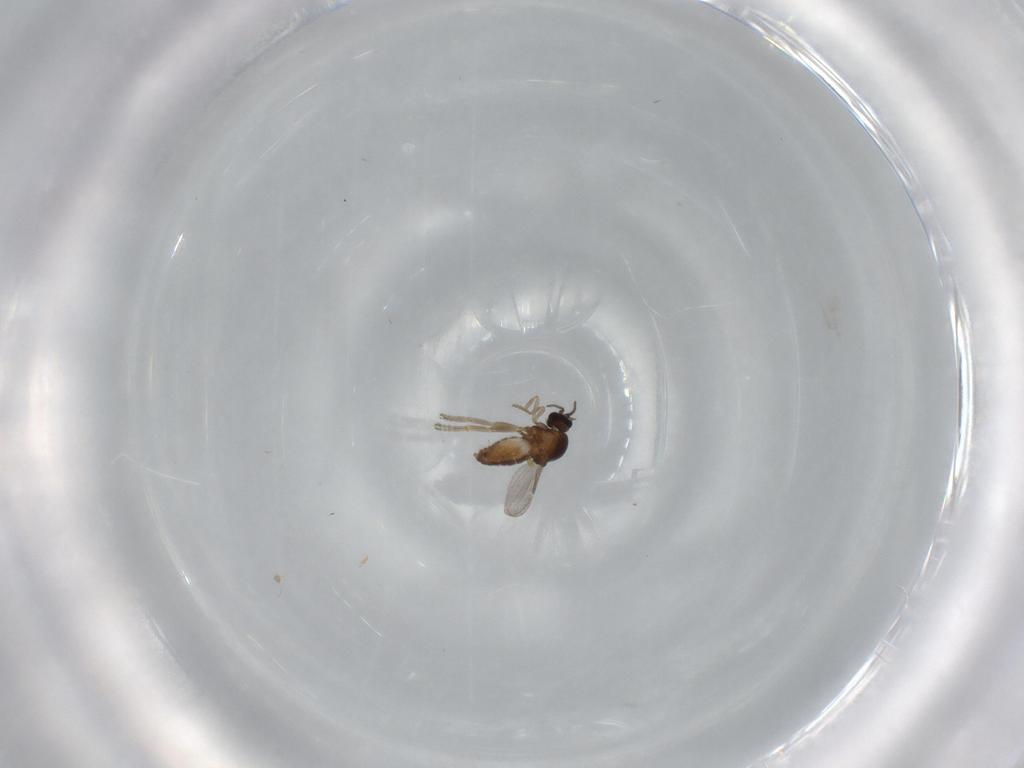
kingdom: Animalia
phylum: Arthropoda
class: Insecta
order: Diptera
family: Ceratopogonidae
